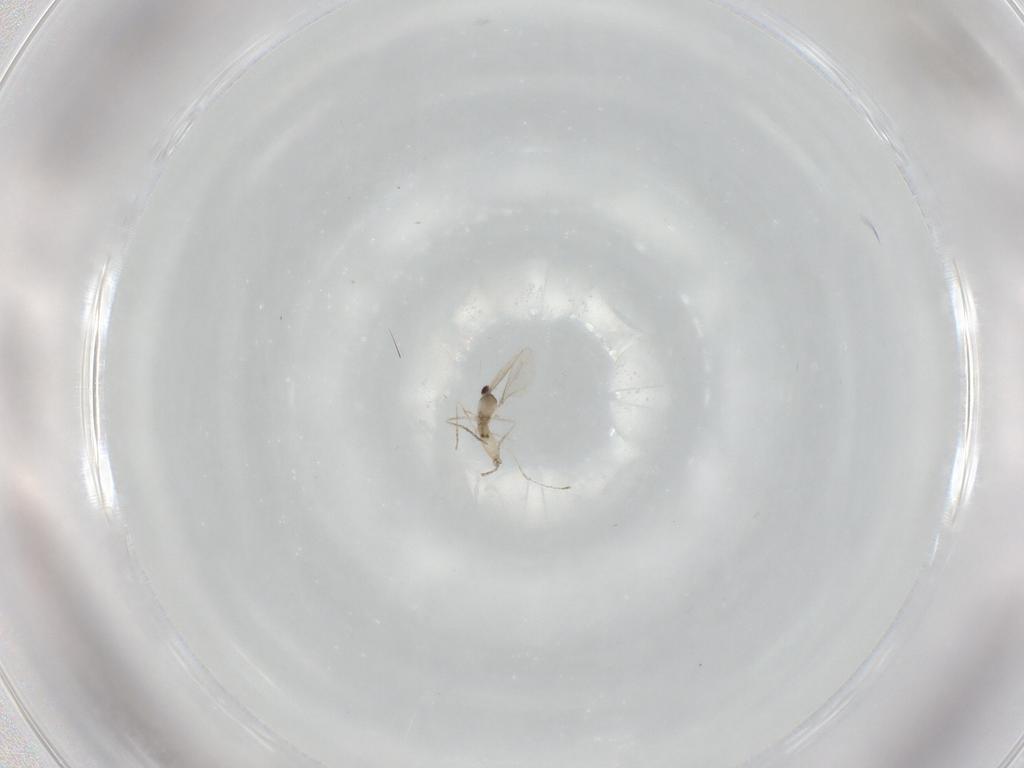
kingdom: Animalia
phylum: Arthropoda
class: Insecta
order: Diptera
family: Cecidomyiidae
